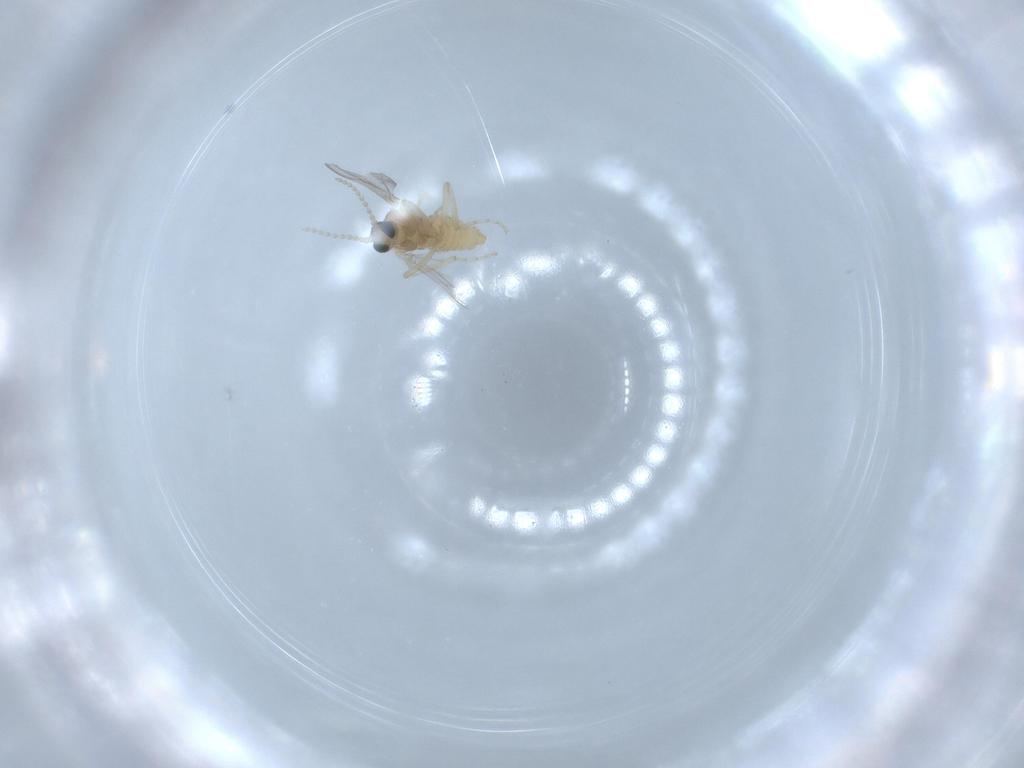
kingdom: Animalia
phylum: Arthropoda
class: Insecta
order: Diptera
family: Cecidomyiidae
